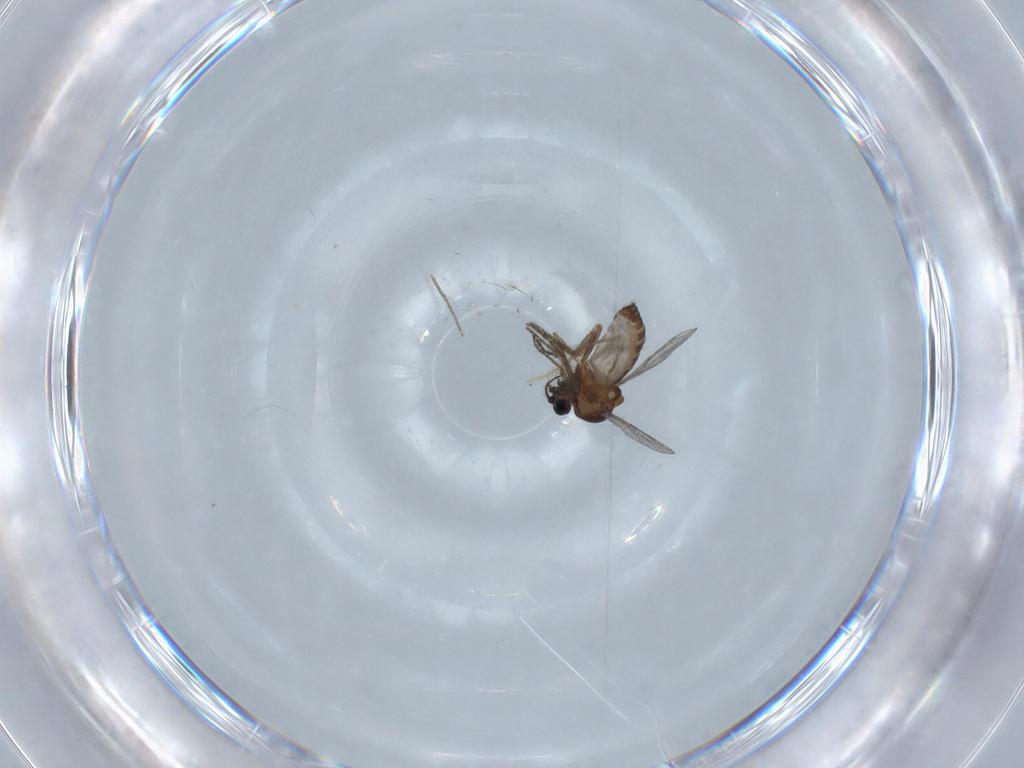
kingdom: Animalia
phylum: Arthropoda
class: Insecta
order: Diptera
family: Chironomidae
